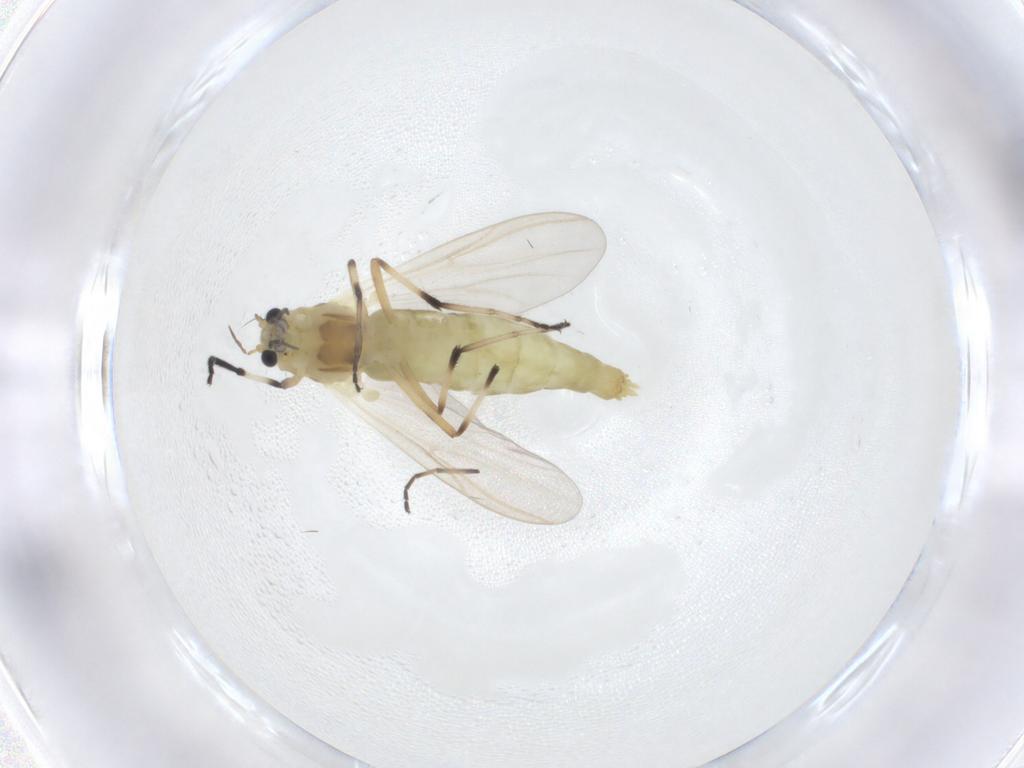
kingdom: Animalia
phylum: Arthropoda
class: Insecta
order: Diptera
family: Chironomidae
